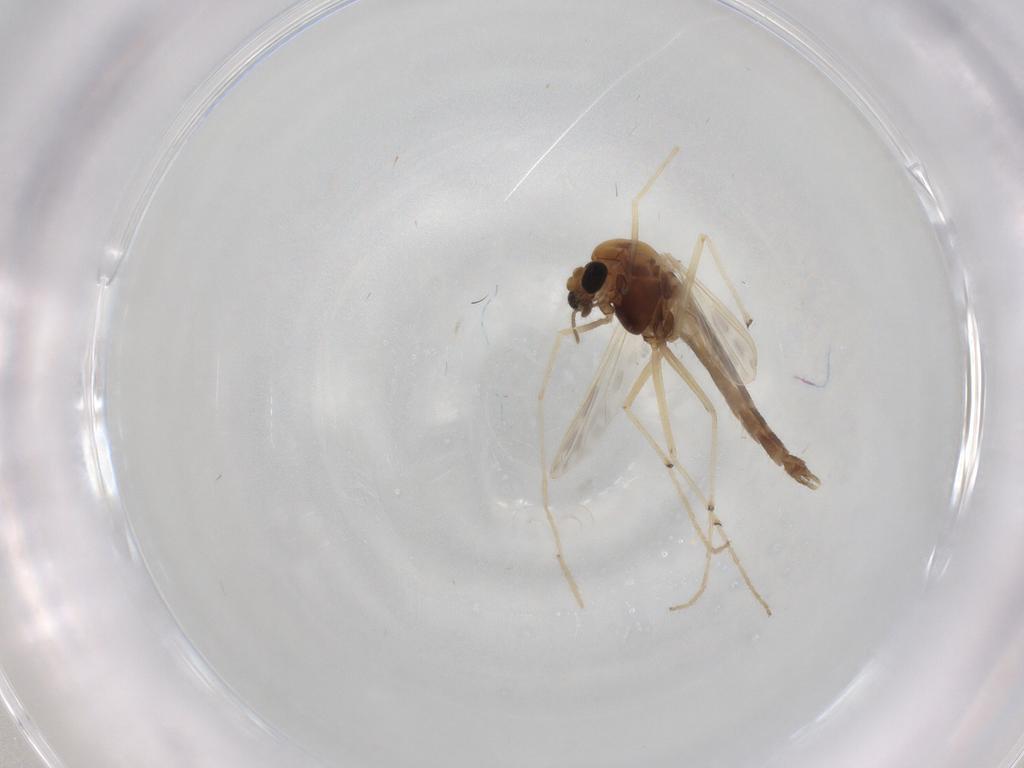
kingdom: Animalia
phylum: Arthropoda
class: Insecta
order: Diptera
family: Chironomidae
